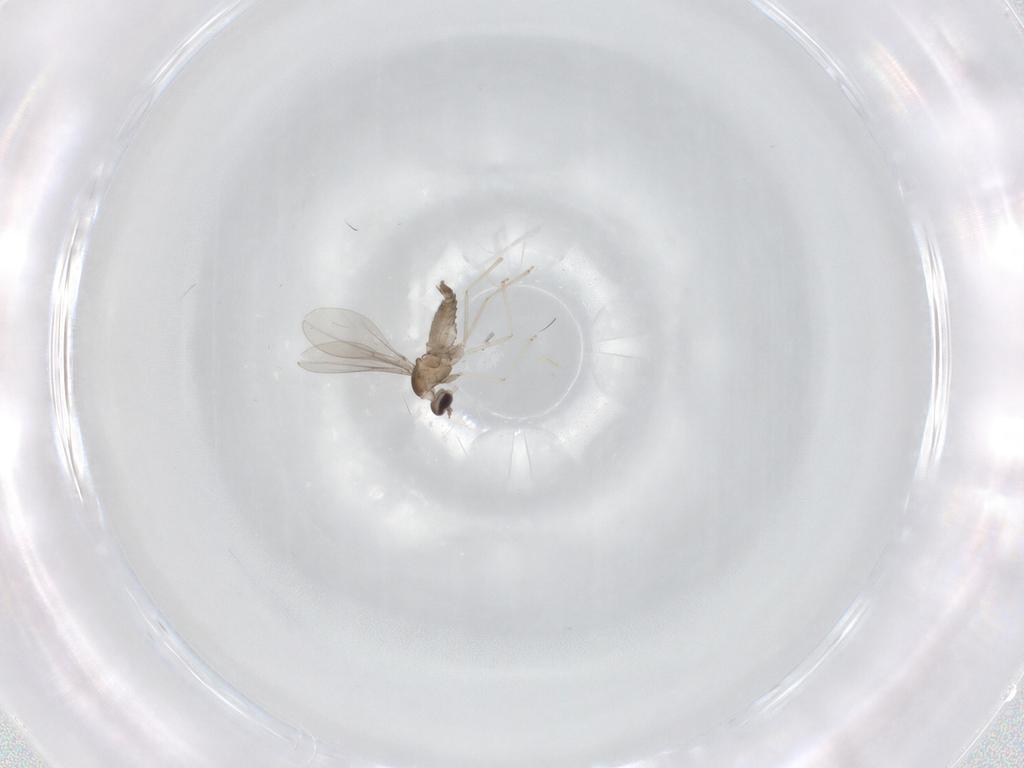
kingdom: Animalia
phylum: Arthropoda
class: Insecta
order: Diptera
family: Cecidomyiidae
